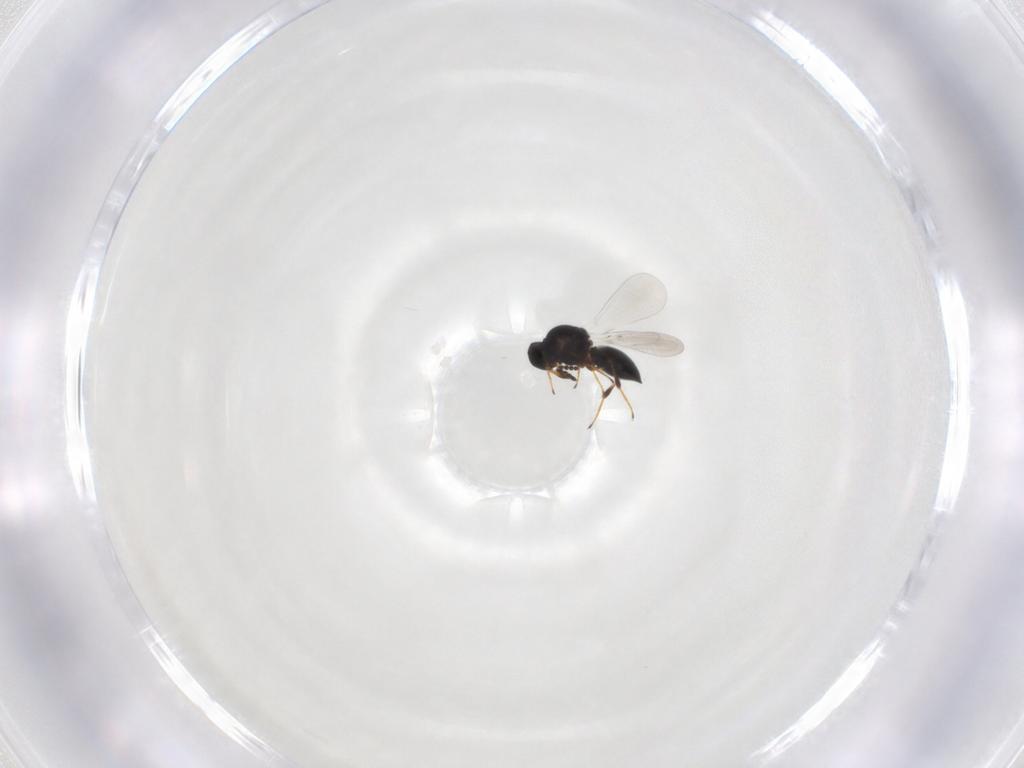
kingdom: Animalia
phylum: Arthropoda
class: Insecta
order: Hymenoptera
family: Platygastridae
